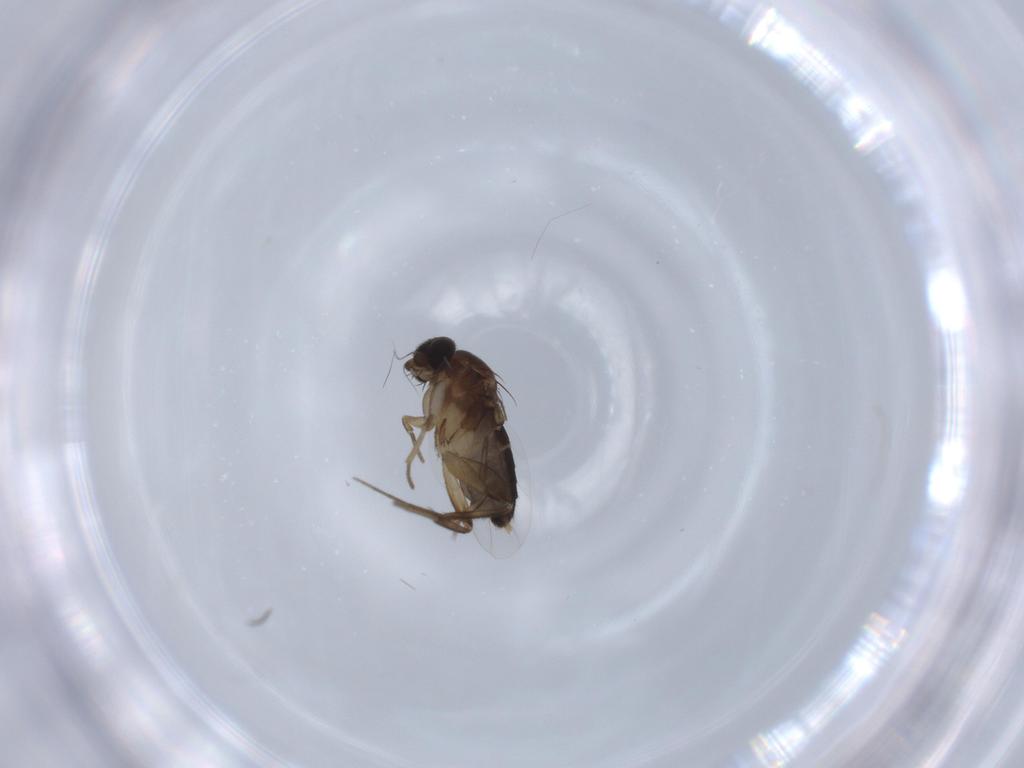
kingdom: Animalia
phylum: Arthropoda
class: Insecta
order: Diptera
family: Phoridae
